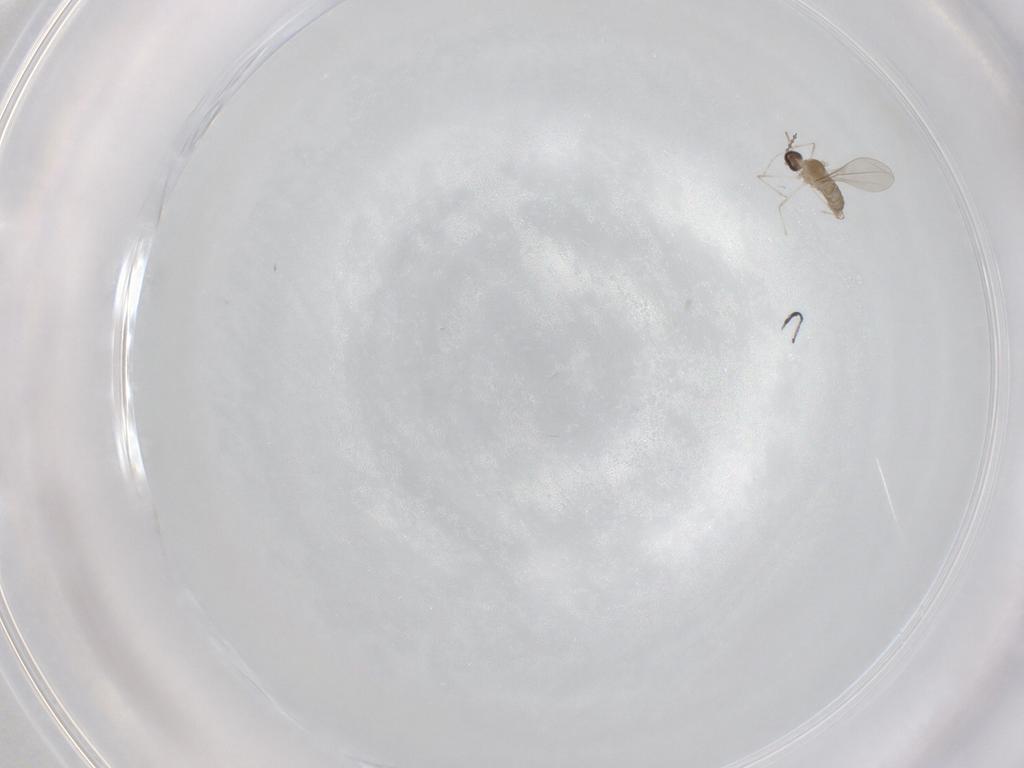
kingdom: Animalia
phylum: Arthropoda
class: Insecta
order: Diptera
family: Cecidomyiidae
